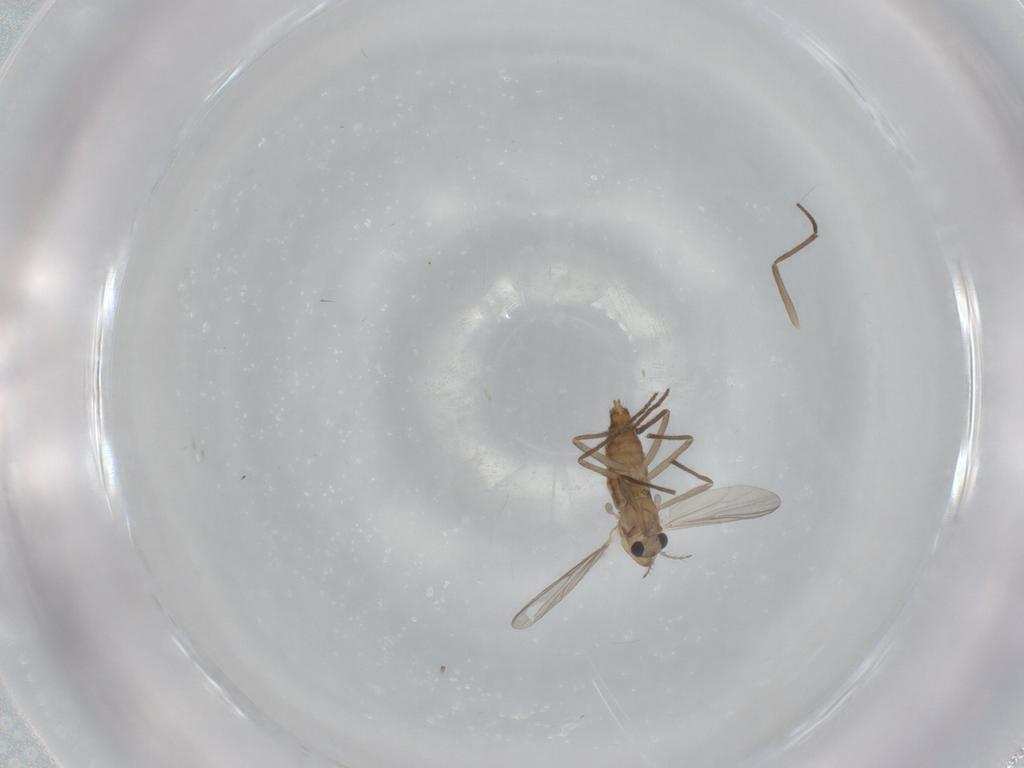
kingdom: Animalia
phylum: Arthropoda
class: Insecta
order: Diptera
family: Chironomidae
